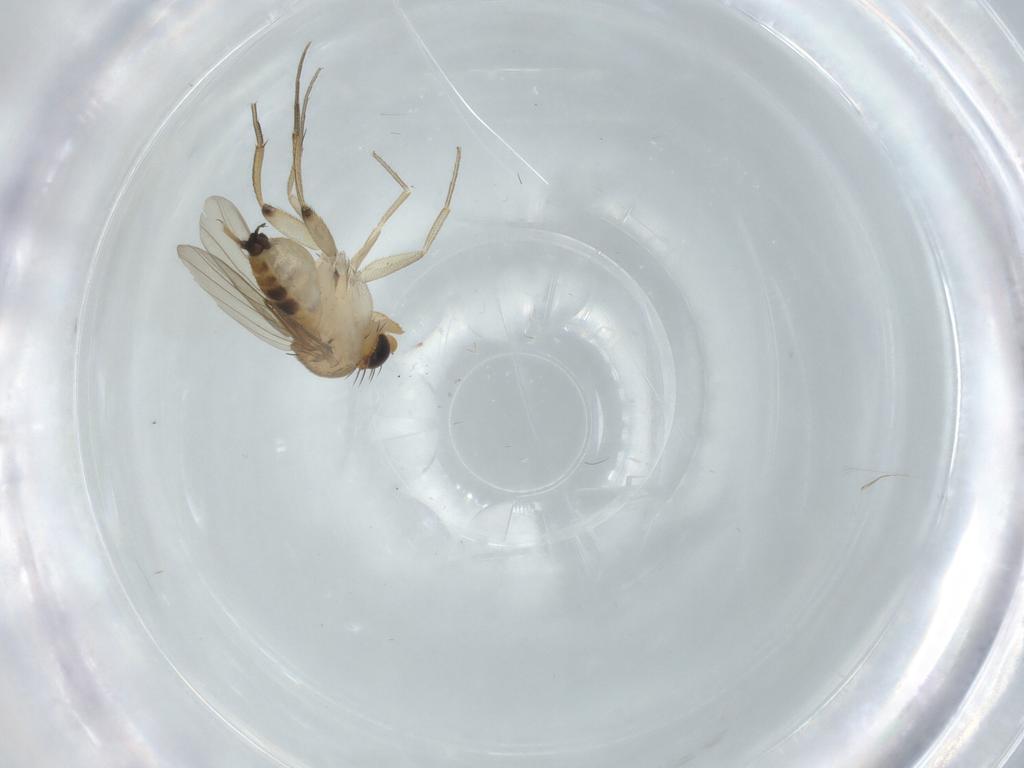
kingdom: Animalia
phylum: Arthropoda
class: Insecta
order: Diptera
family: Phoridae
